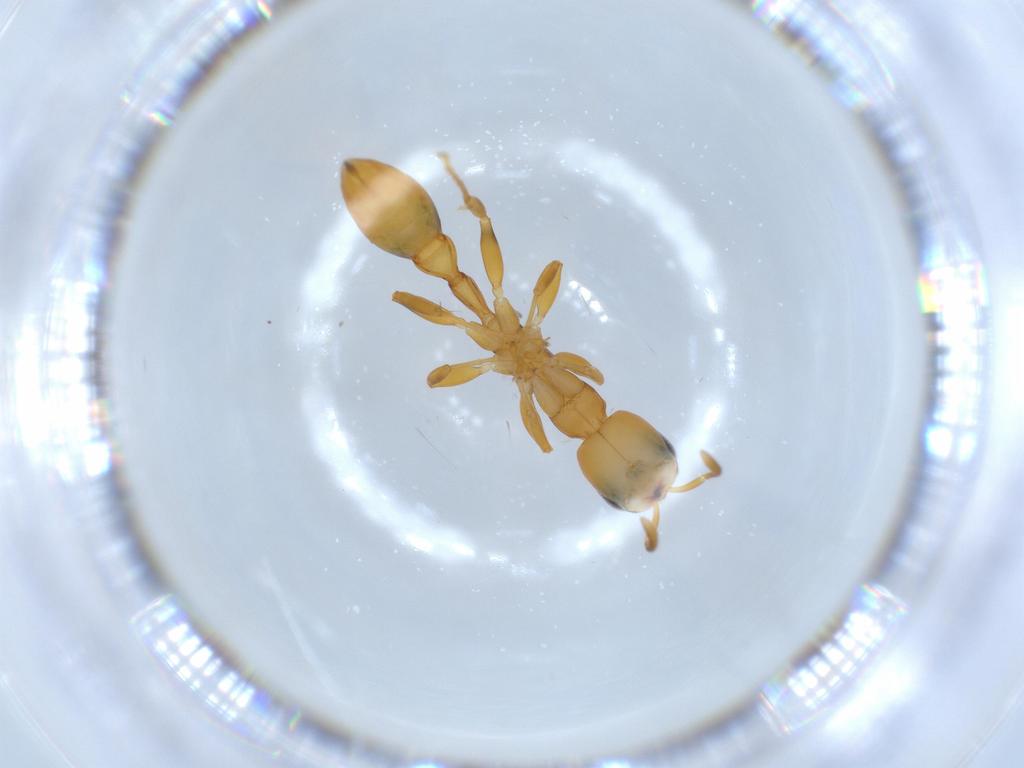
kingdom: Animalia
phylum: Arthropoda
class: Insecta
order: Hymenoptera
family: Formicidae
